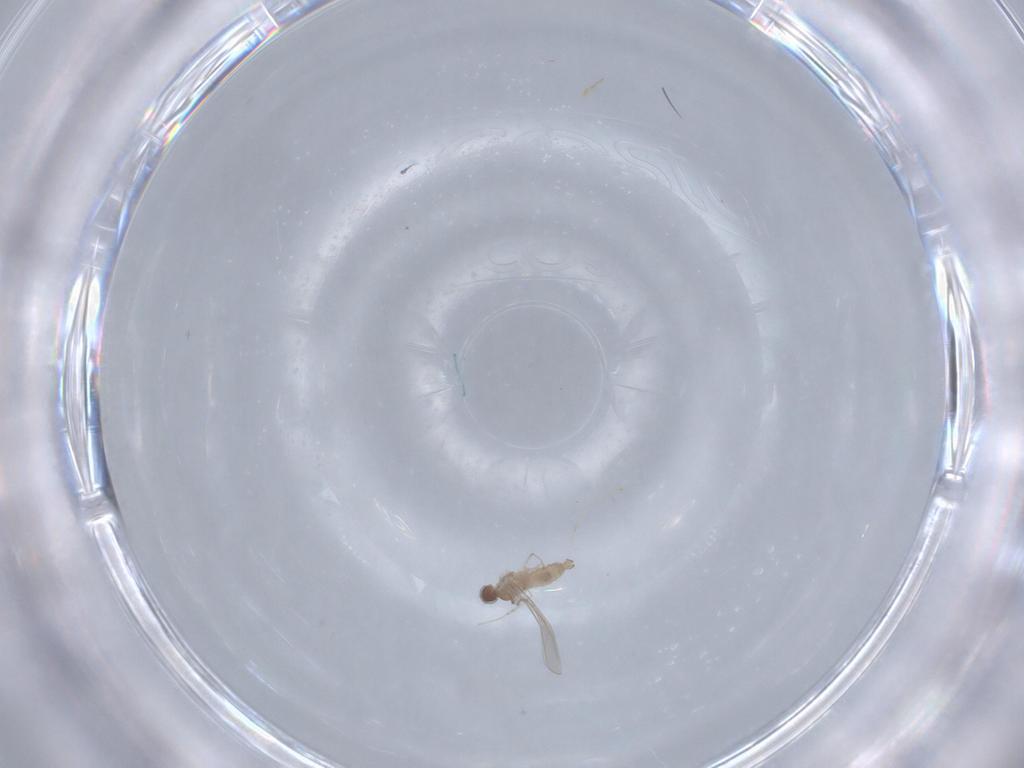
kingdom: Animalia
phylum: Arthropoda
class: Insecta
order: Diptera
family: Cecidomyiidae
